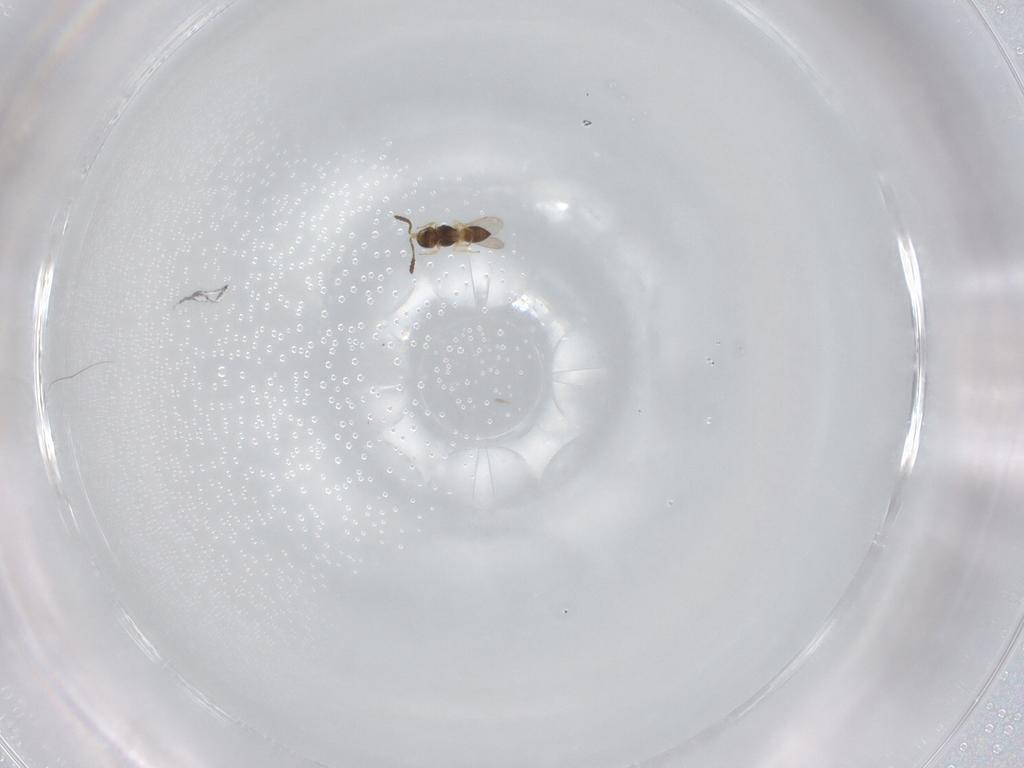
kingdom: Animalia
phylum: Arthropoda
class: Insecta
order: Hymenoptera
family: Scelionidae
